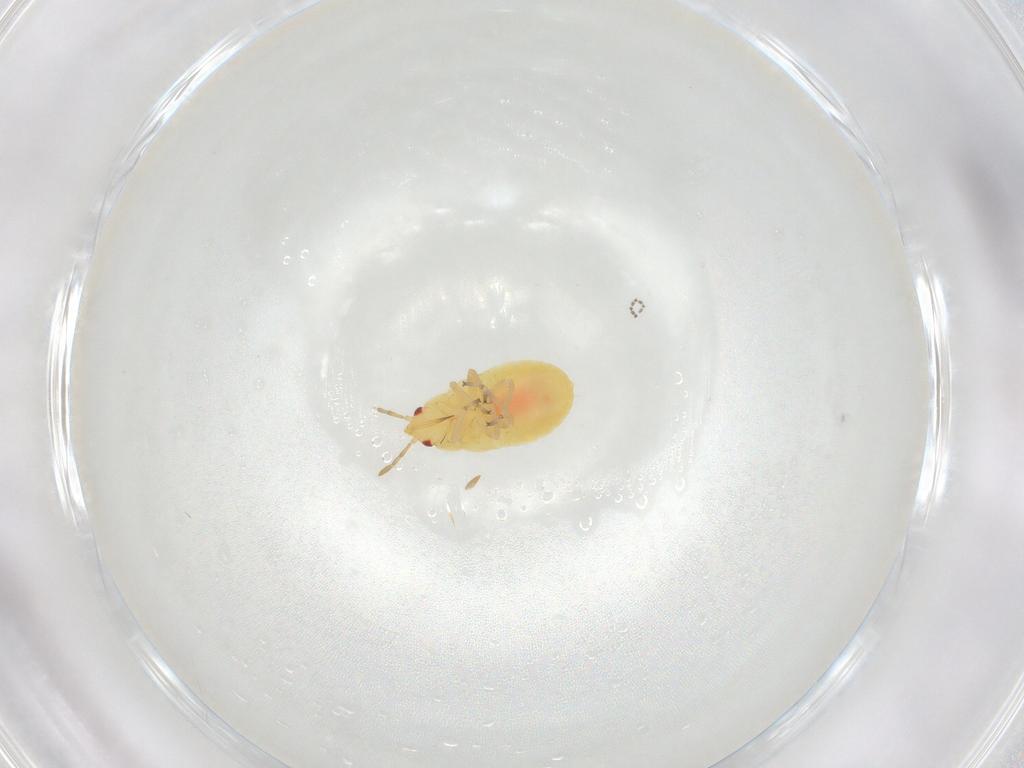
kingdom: Animalia
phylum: Arthropoda
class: Insecta
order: Hemiptera
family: Anthocoridae
